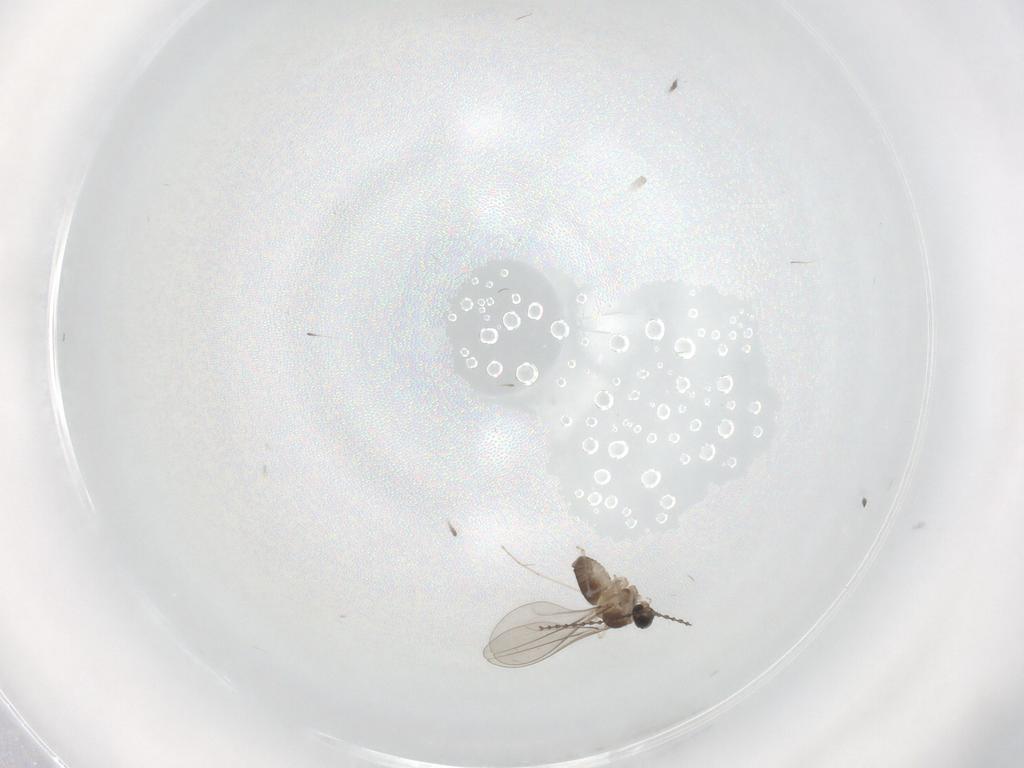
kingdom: Animalia
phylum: Arthropoda
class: Insecta
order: Diptera
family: Cecidomyiidae
